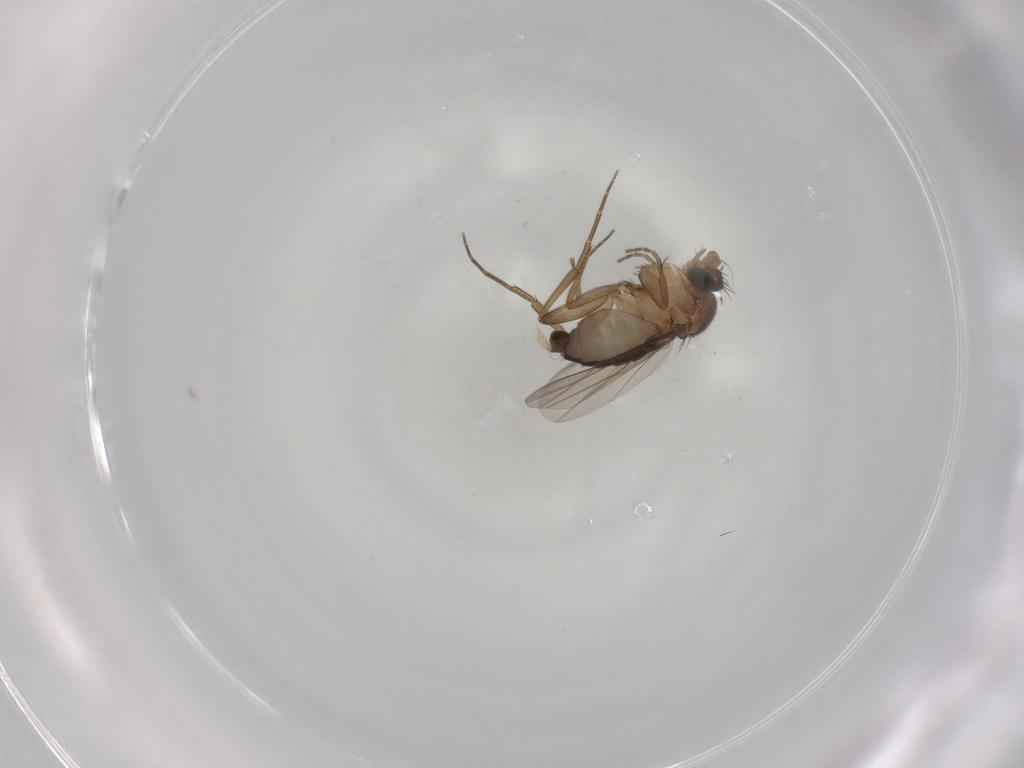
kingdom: Animalia
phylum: Arthropoda
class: Insecta
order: Diptera
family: Phoridae
